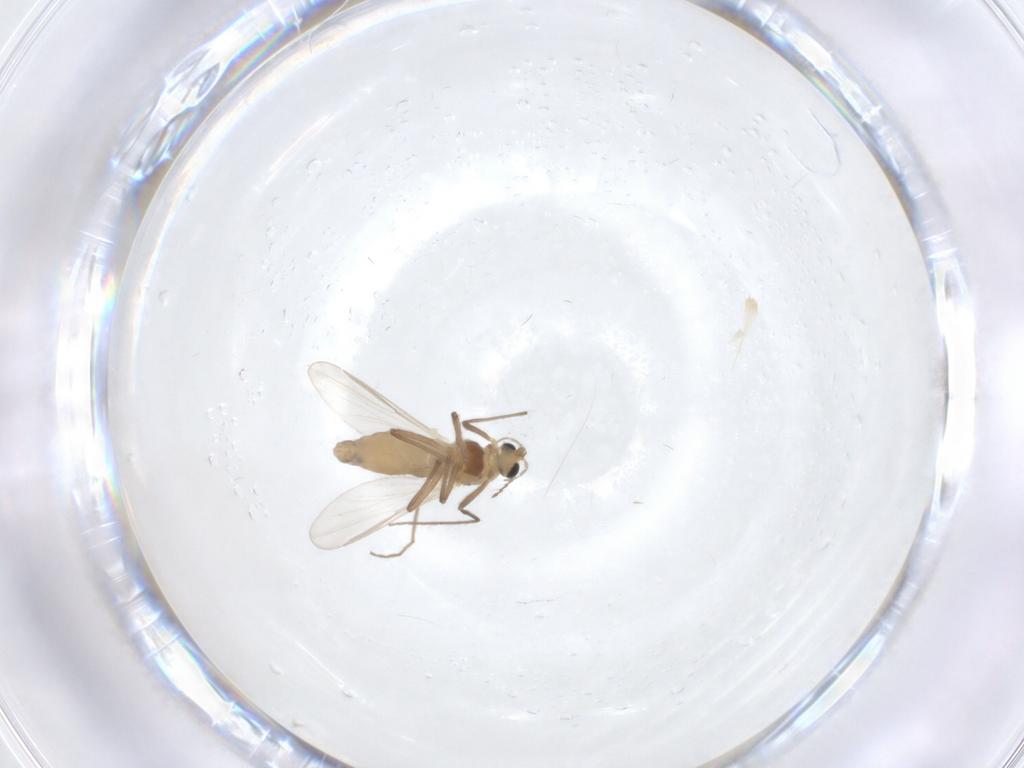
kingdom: Animalia
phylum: Arthropoda
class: Insecta
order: Diptera
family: Chironomidae
